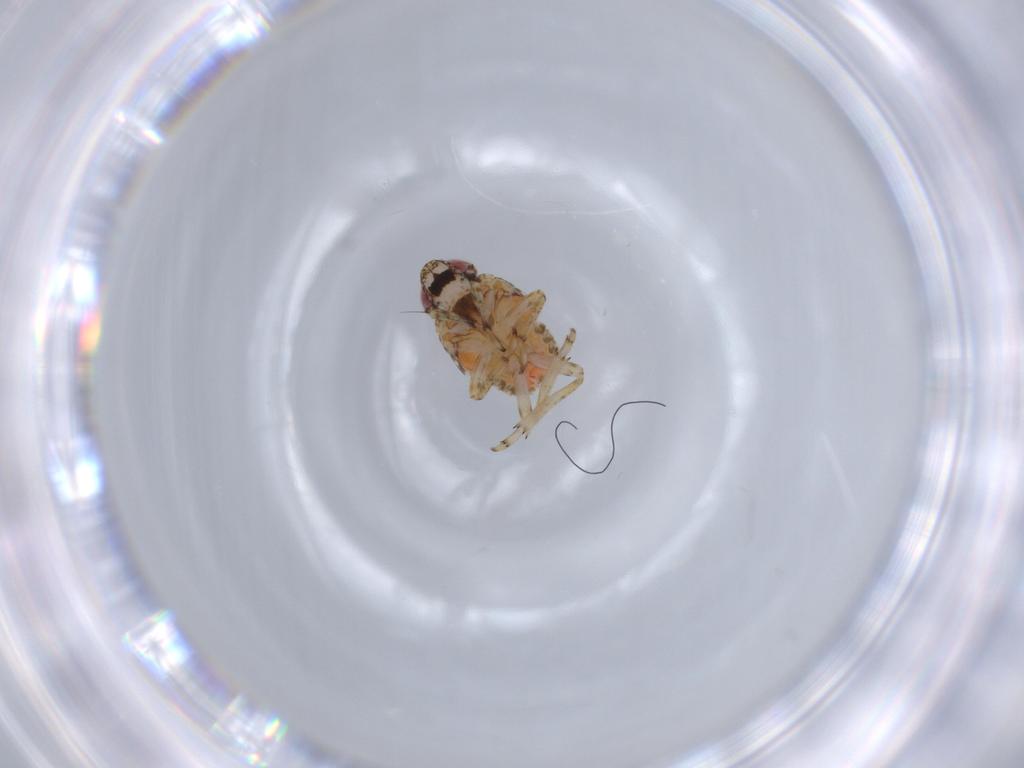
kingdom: Animalia
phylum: Arthropoda
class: Insecta
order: Hemiptera
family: Issidae
